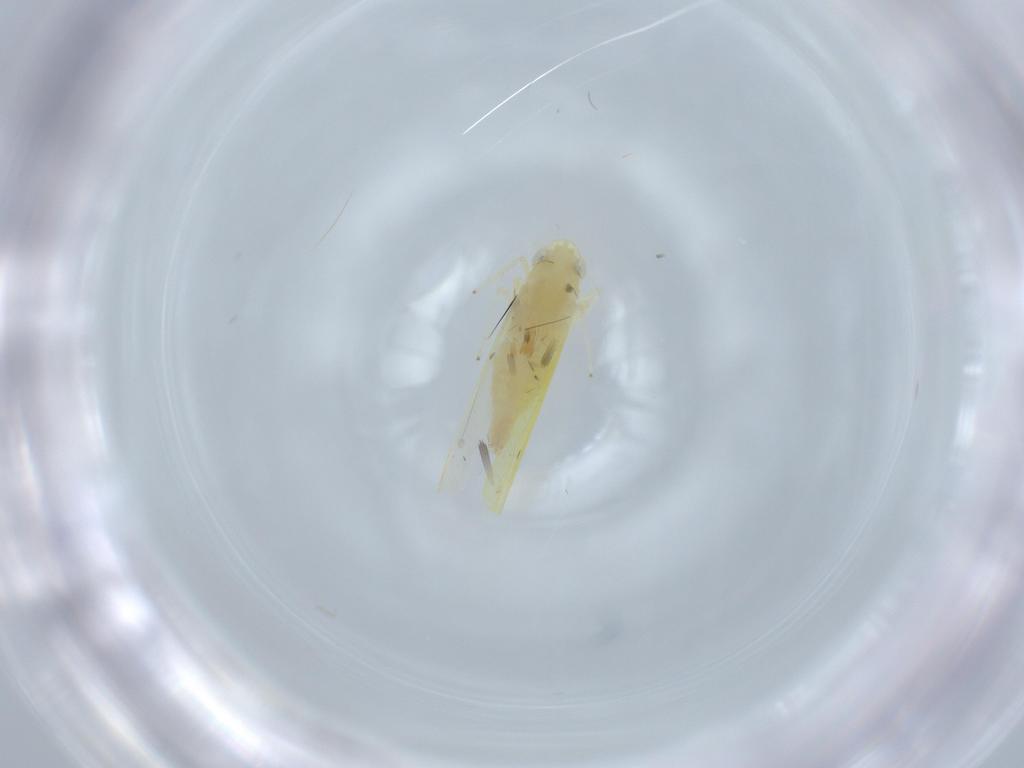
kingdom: Animalia
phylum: Arthropoda
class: Insecta
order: Hemiptera
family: Cicadellidae
